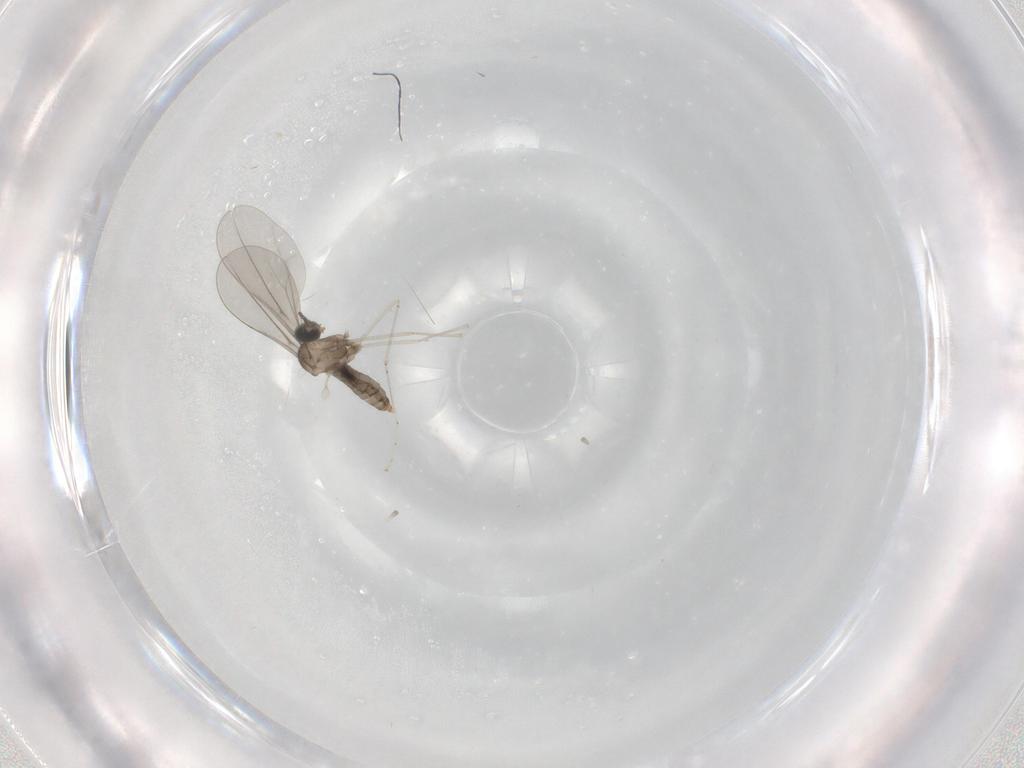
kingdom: Animalia
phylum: Arthropoda
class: Insecta
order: Diptera
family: Cecidomyiidae
